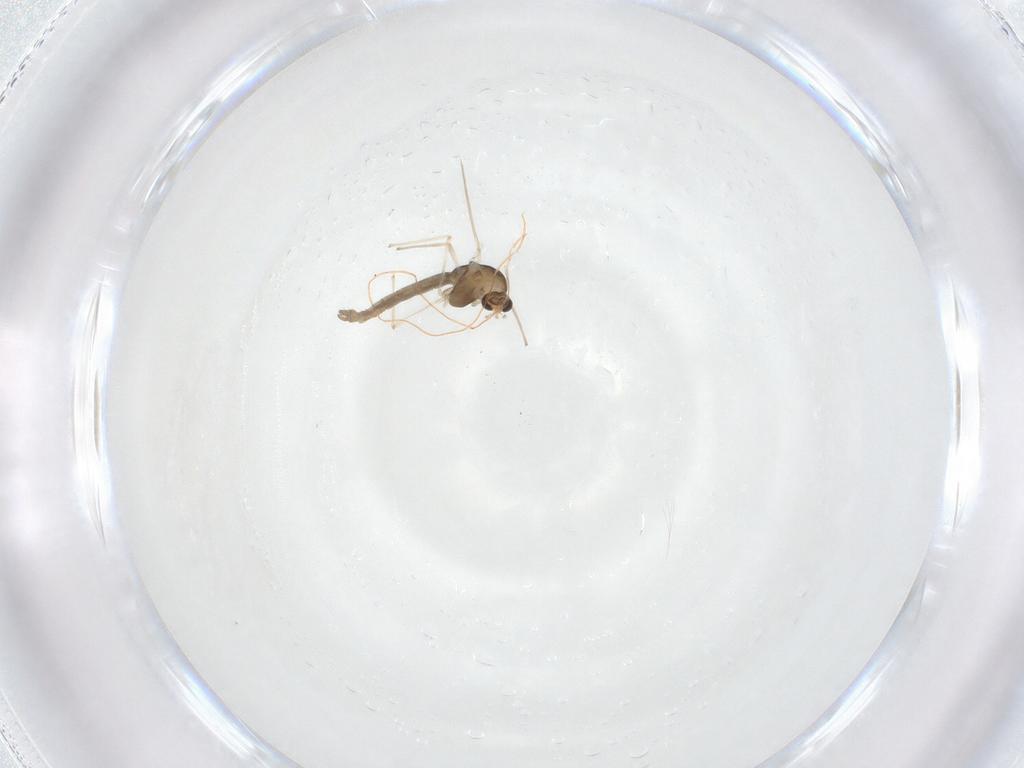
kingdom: Animalia
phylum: Arthropoda
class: Insecta
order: Diptera
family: Chironomidae
